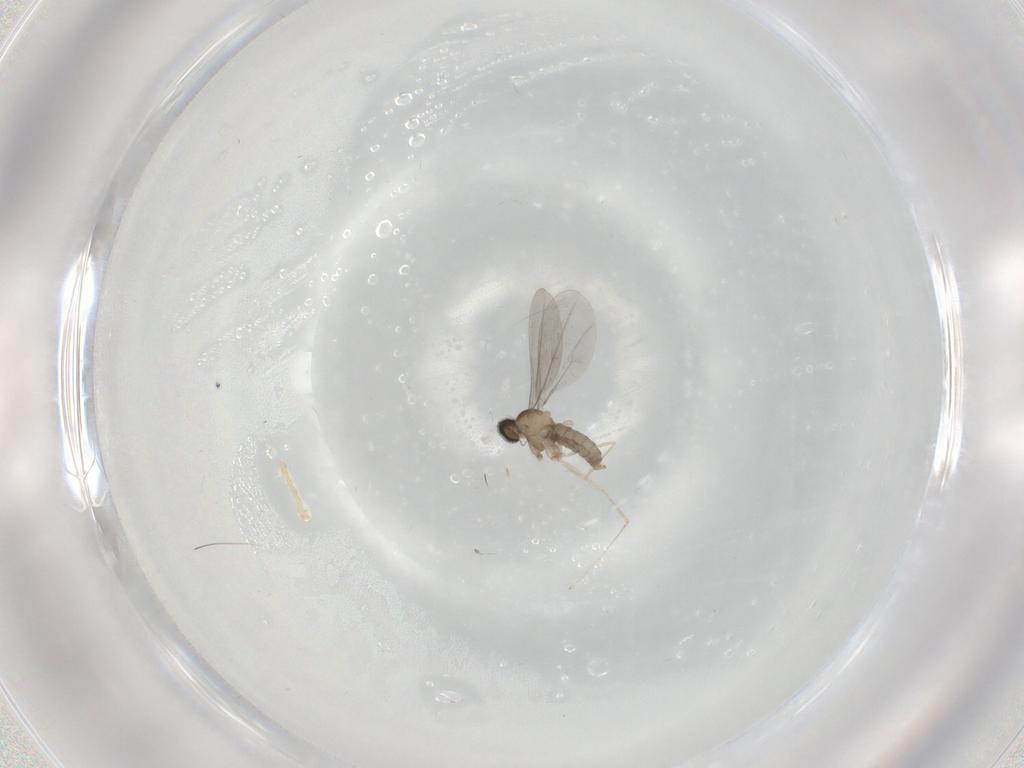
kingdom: Animalia
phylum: Arthropoda
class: Insecta
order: Diptera
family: Cecidomyiidae
